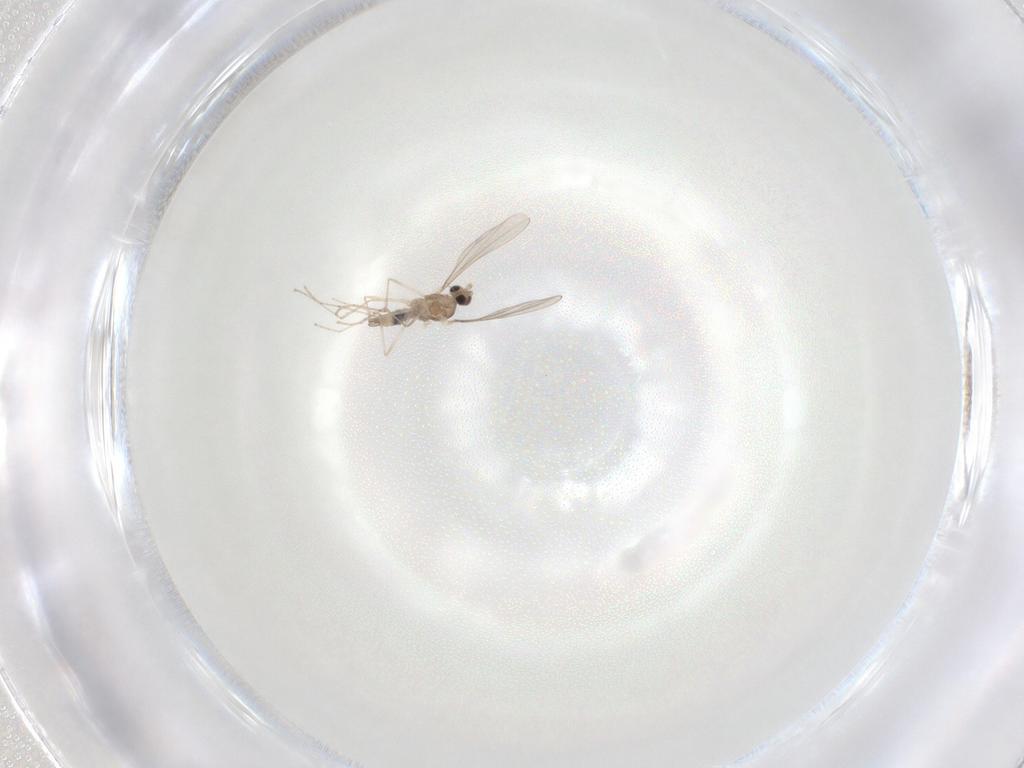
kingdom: Animalia
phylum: Arthropoda
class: Insecta
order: Diptera
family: Cecidomyiidae
